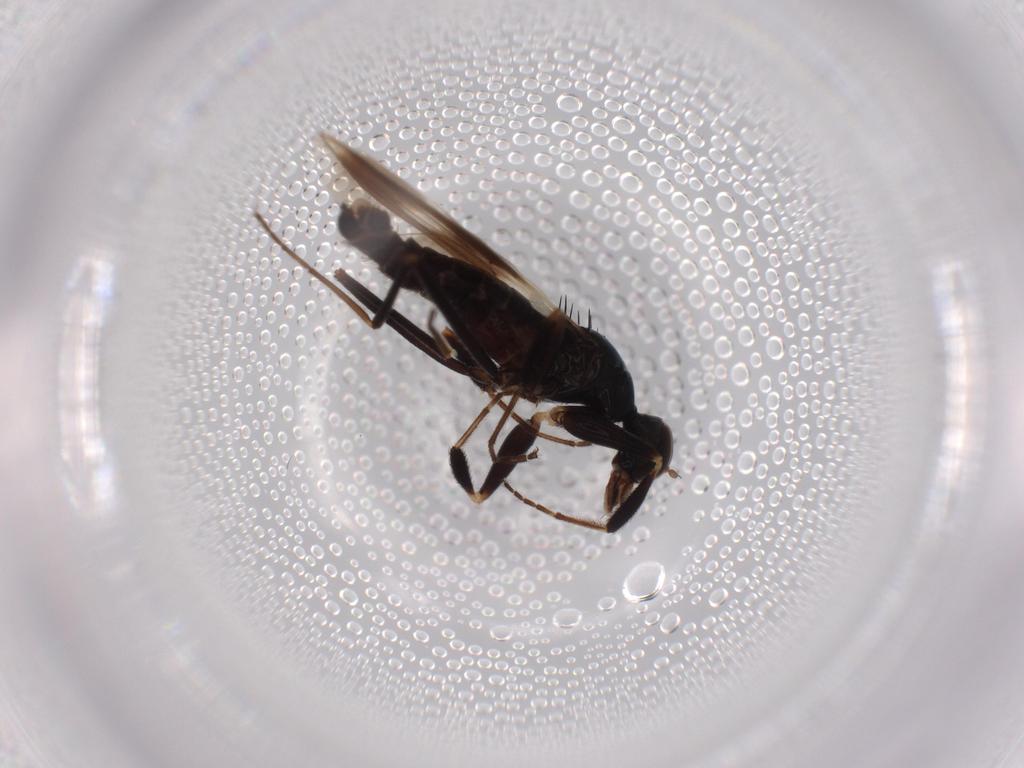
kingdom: Animalia
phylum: Arthropoda
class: Insecta
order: Diptera
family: Hybotidae
